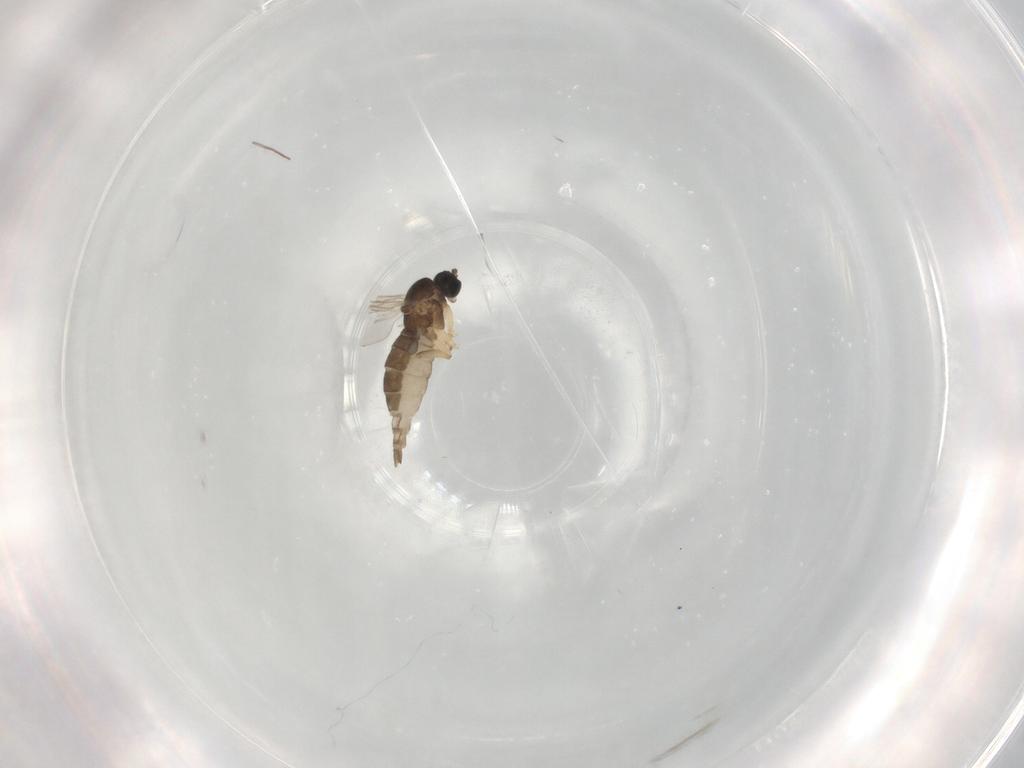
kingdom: Animalia
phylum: Arthropoda
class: Insecta
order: Diptera
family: Sciaridae
